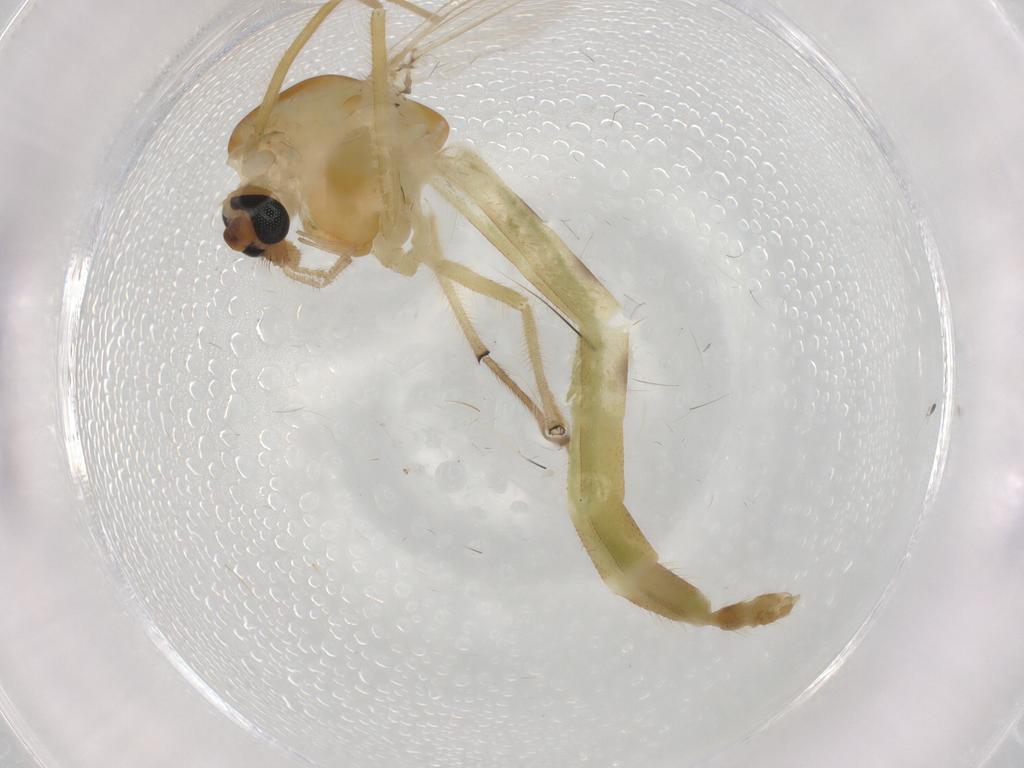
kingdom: Animalia
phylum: Arthropoda
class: Insecta
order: Diptera
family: Chironomidae
